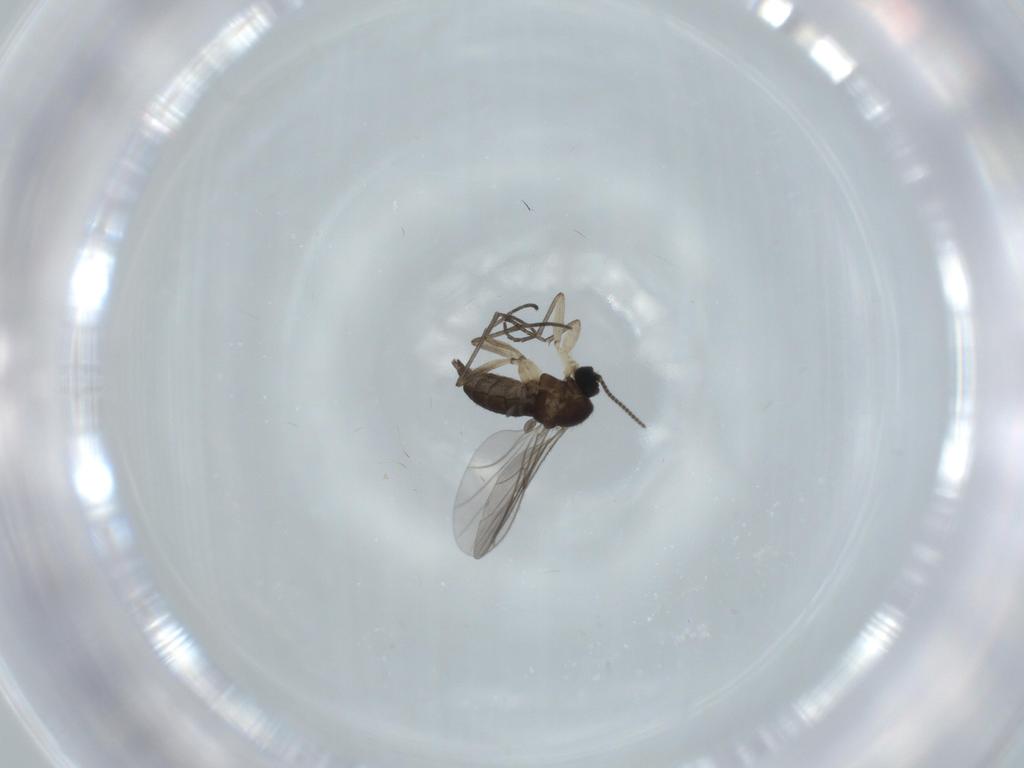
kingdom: Animalia
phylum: Arthropoda
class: Insecta
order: Diptera
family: Sciaridae
